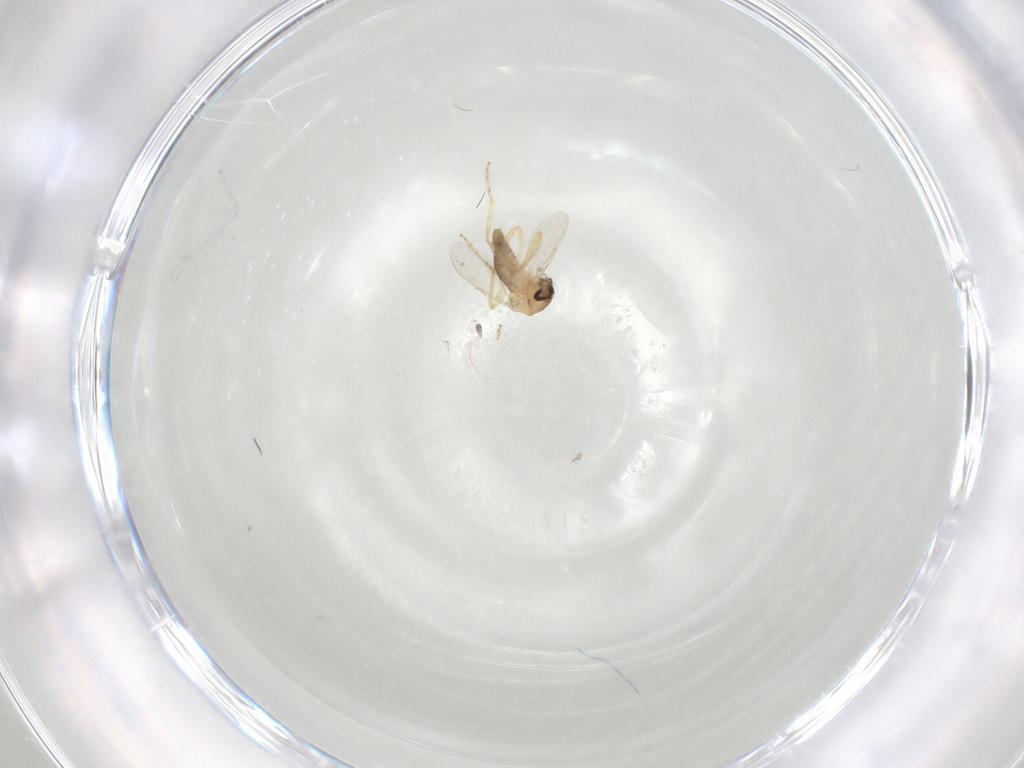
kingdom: Animalia
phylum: Arthropoda
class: Insecta
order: Diptera
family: Ceratopogonidae
